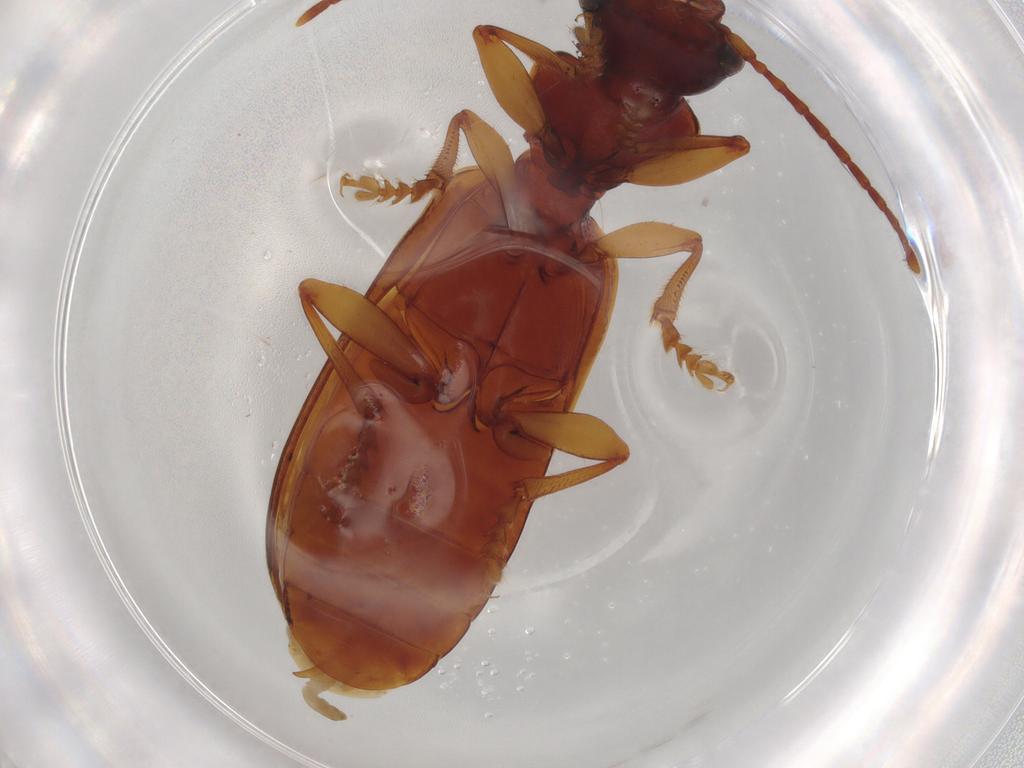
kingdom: Animalia
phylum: Arthropoda
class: Insecta
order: Coleoptera
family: Carabidae
